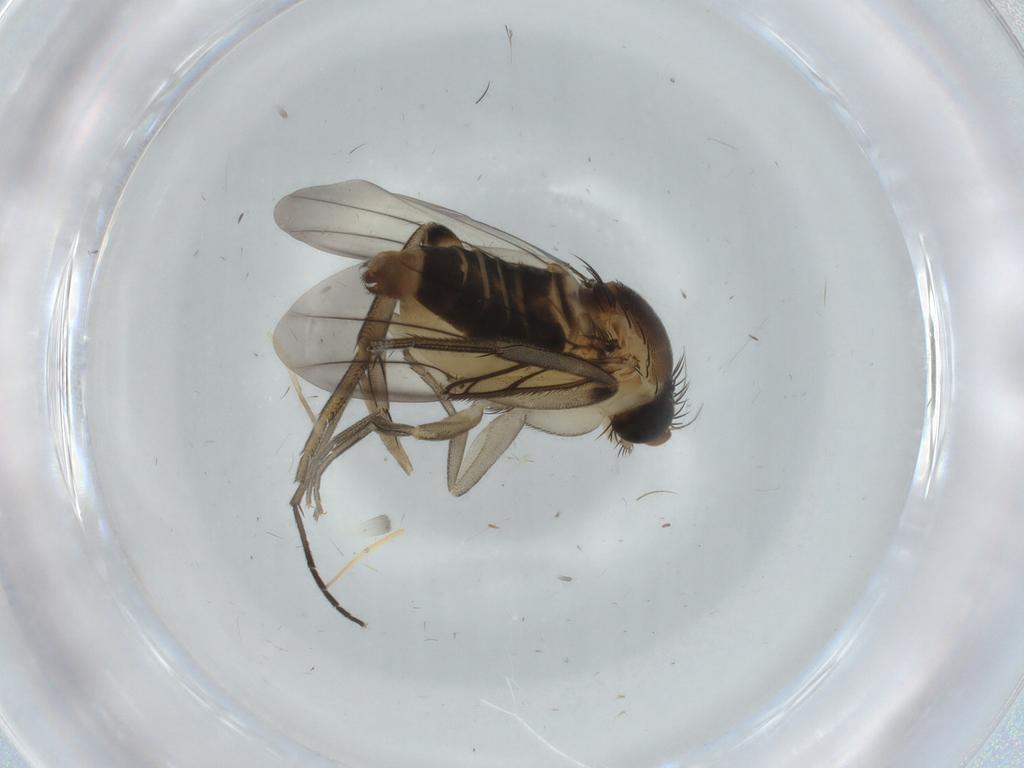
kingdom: Animalia
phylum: Arthropoda
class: Insecta
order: Diptera
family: Phoridae
